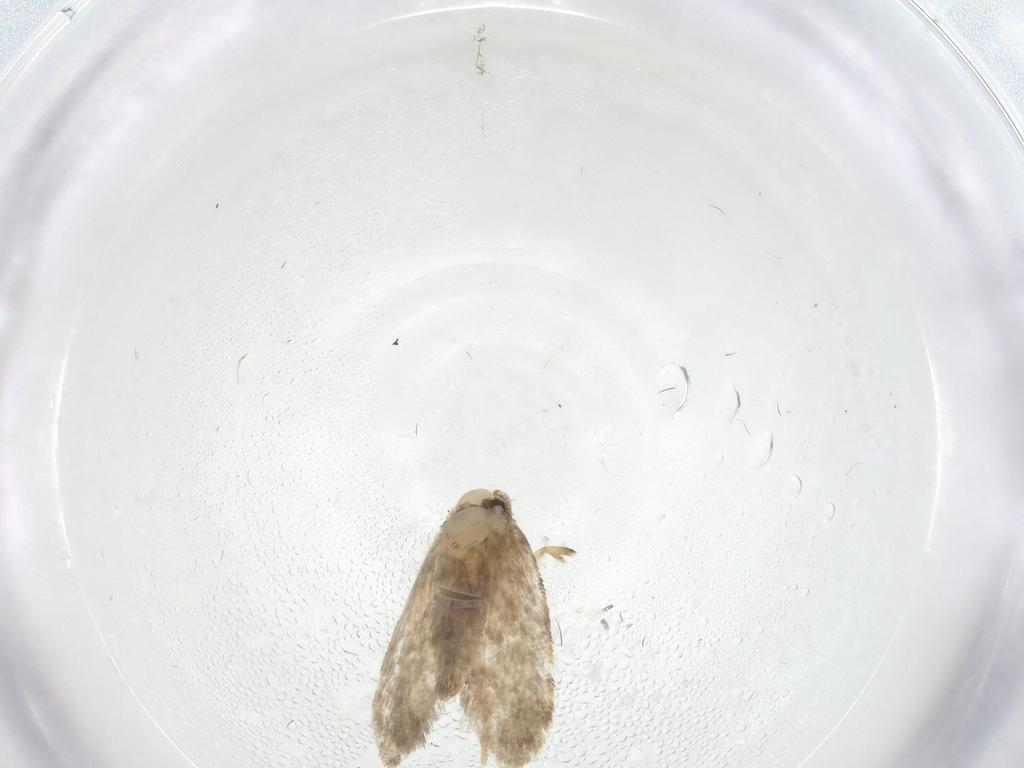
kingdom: Animalia
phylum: Arthropoda
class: Insecta
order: Lepidoptera
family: Psychidae
